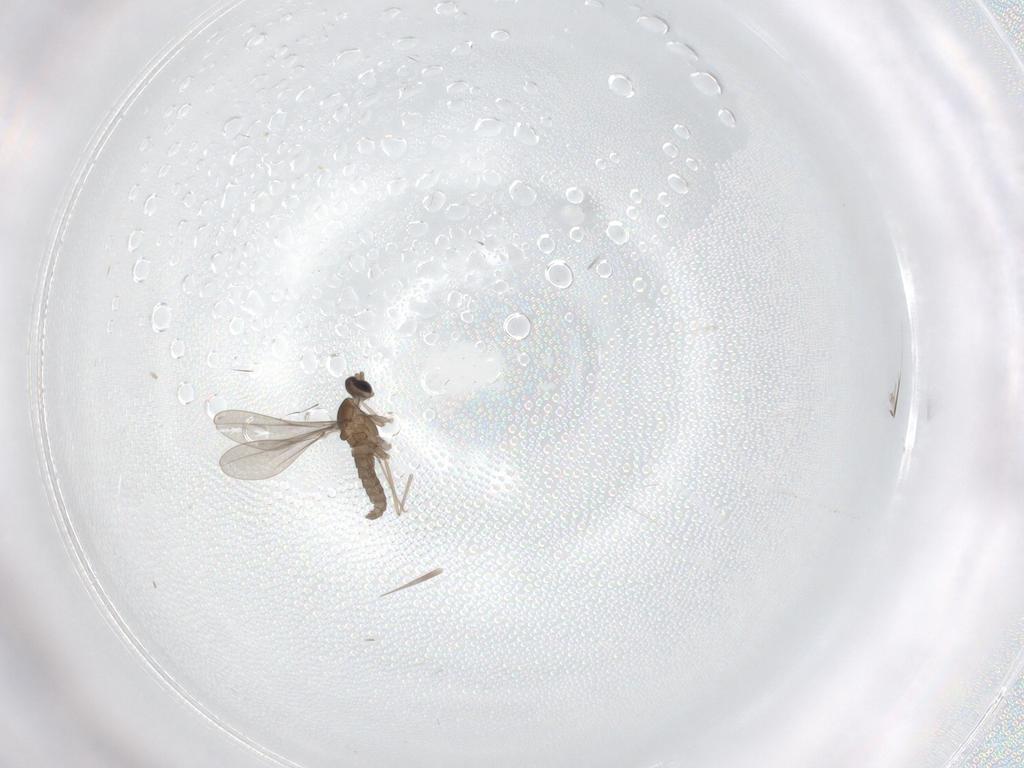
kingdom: Animalia
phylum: Arthropoda
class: Insecta
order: Diptera
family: Cecidomyiidae
